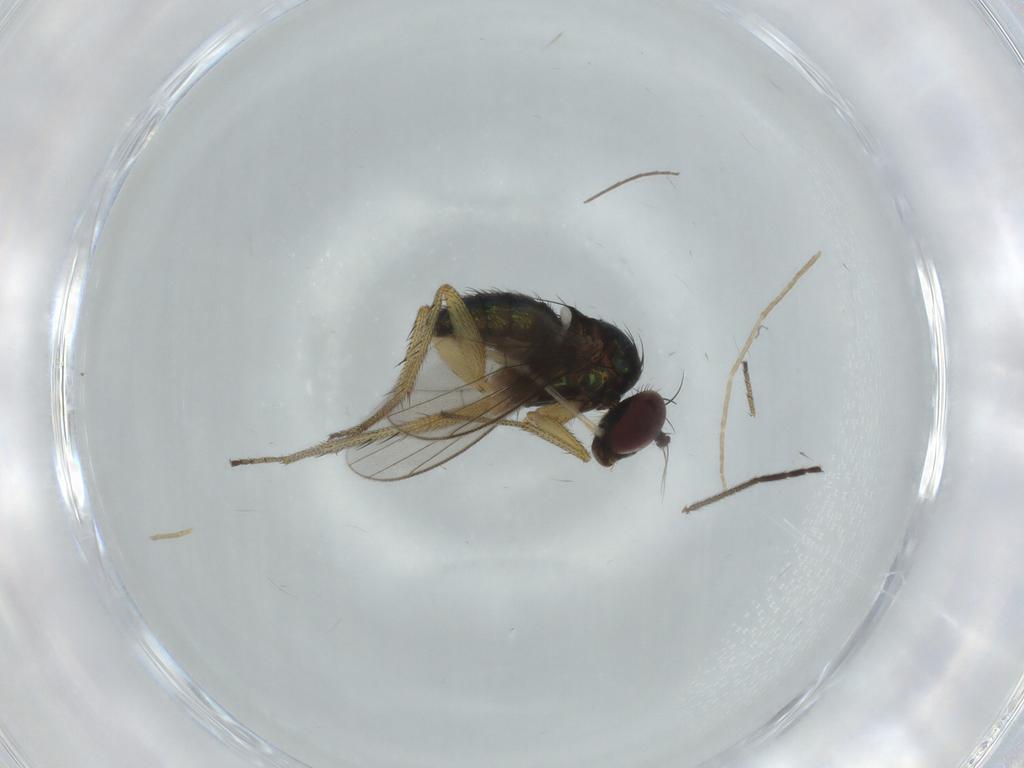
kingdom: Animalia
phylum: Arthropoda
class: Insecta
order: Diptera
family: Limoniidae
